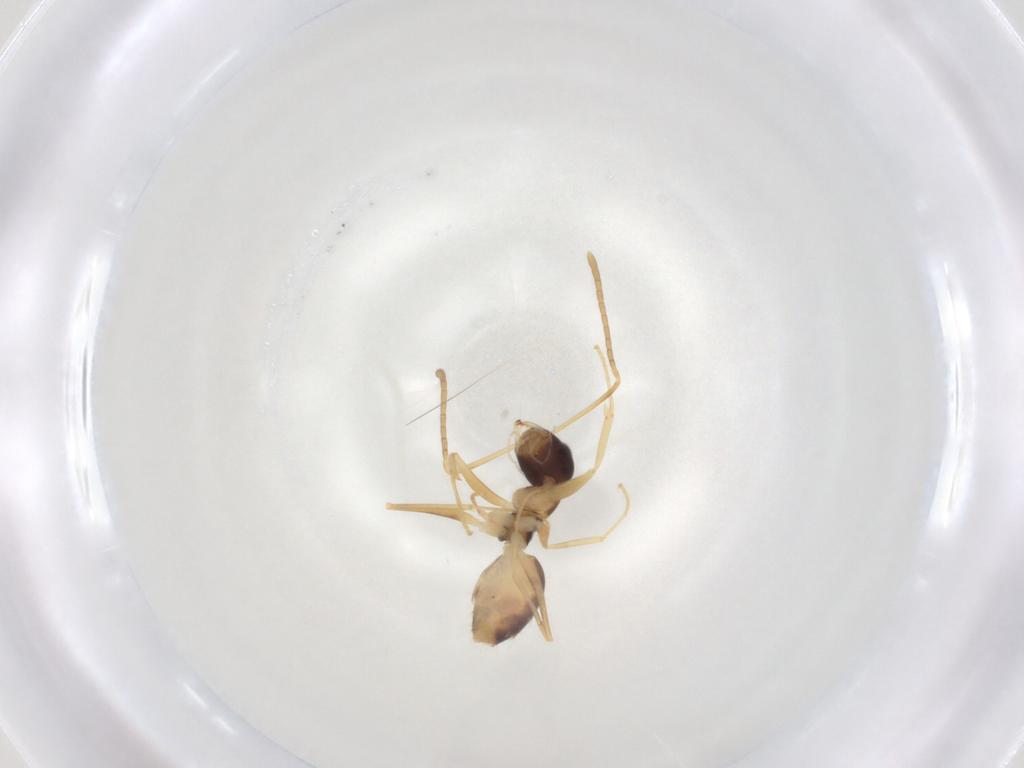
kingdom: Animalia
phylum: Arthropoda
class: Insecta
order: Hymenoptera
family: Formicidae
